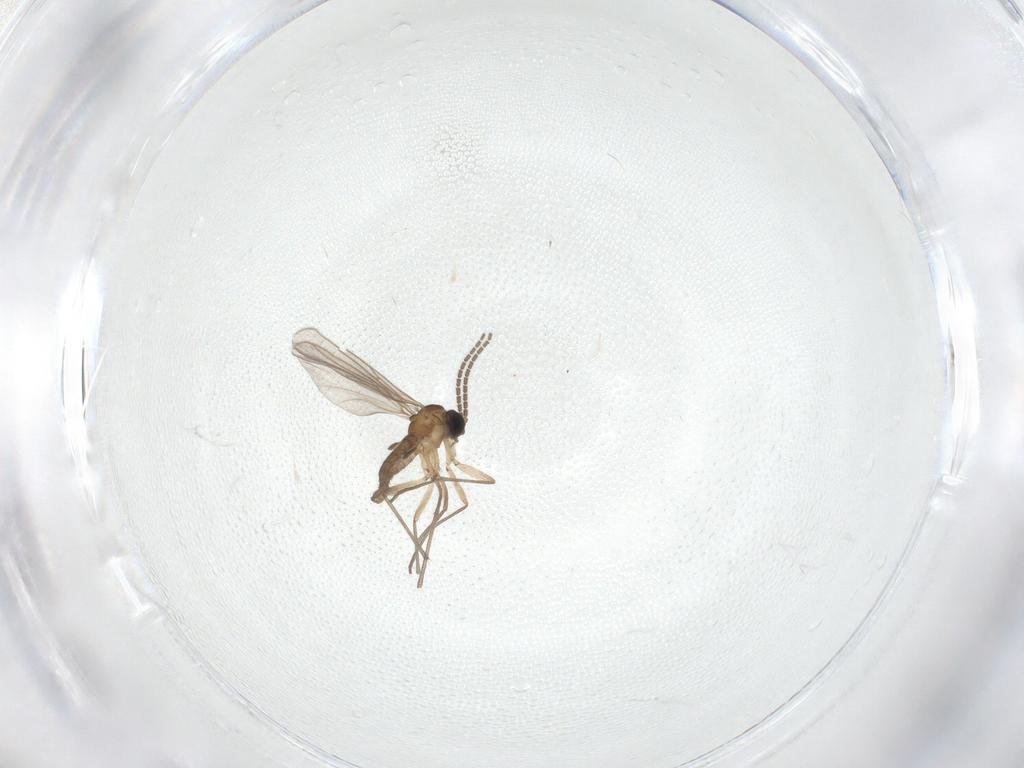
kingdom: Animalia
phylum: Arthropoda
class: Insecta
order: Diptera
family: Sciaridae
